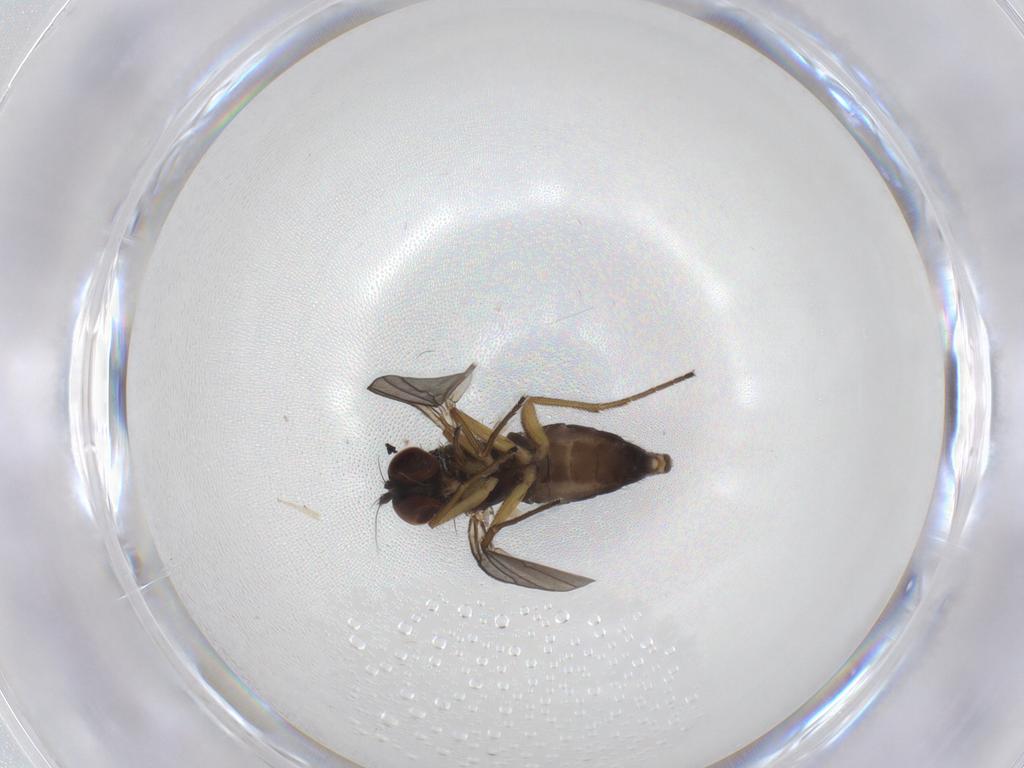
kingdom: Animalia
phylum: Arthropoda
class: Insecta
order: Diptera
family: Dolichopodidae
